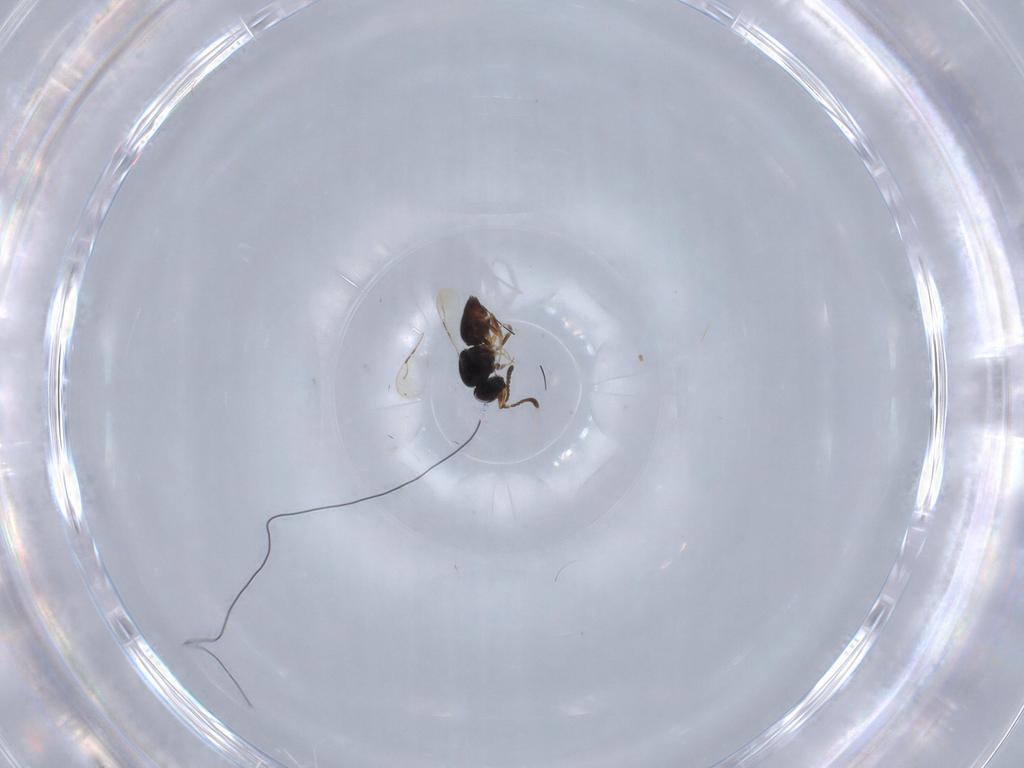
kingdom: Animalia
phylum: Arthropoda
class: Insecta
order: Hymenoptera
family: Ceraphronidae
